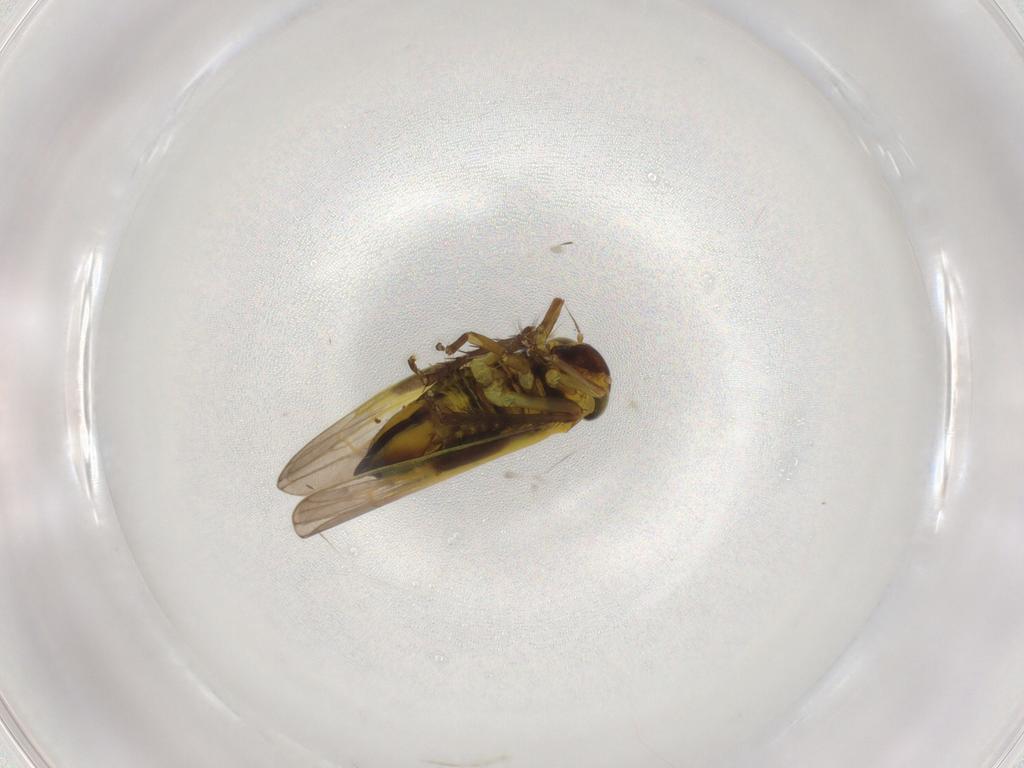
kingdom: Animalia
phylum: Arthropoda
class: Insecta
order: Hemiptera
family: Cicadellidae
